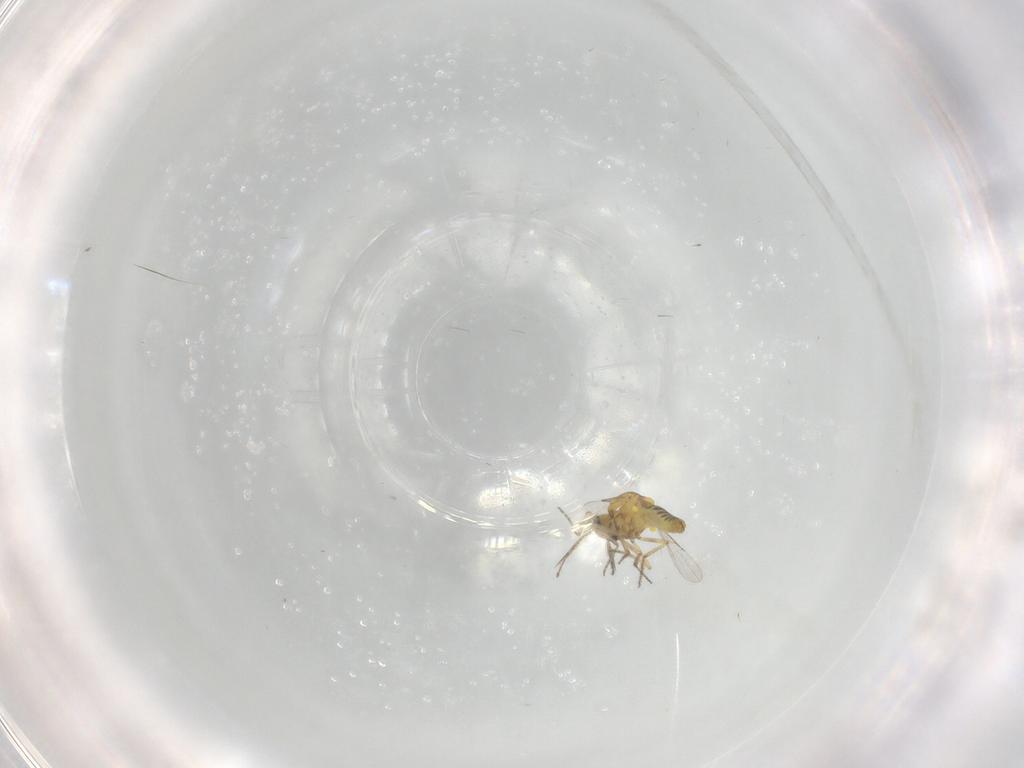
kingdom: Animalia
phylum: Arthropoda
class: Insecta
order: Diptera
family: Ceratopogonidae
